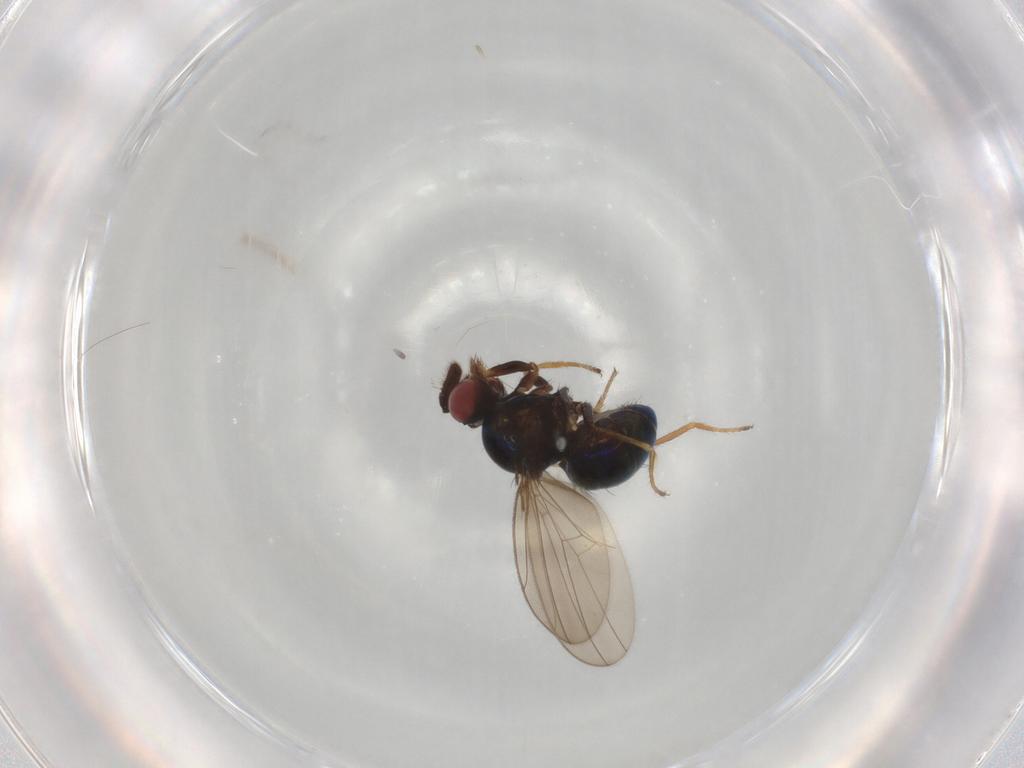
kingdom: Animalia
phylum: Arthropoda
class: Insecta
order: Diptera
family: Ephydridae
